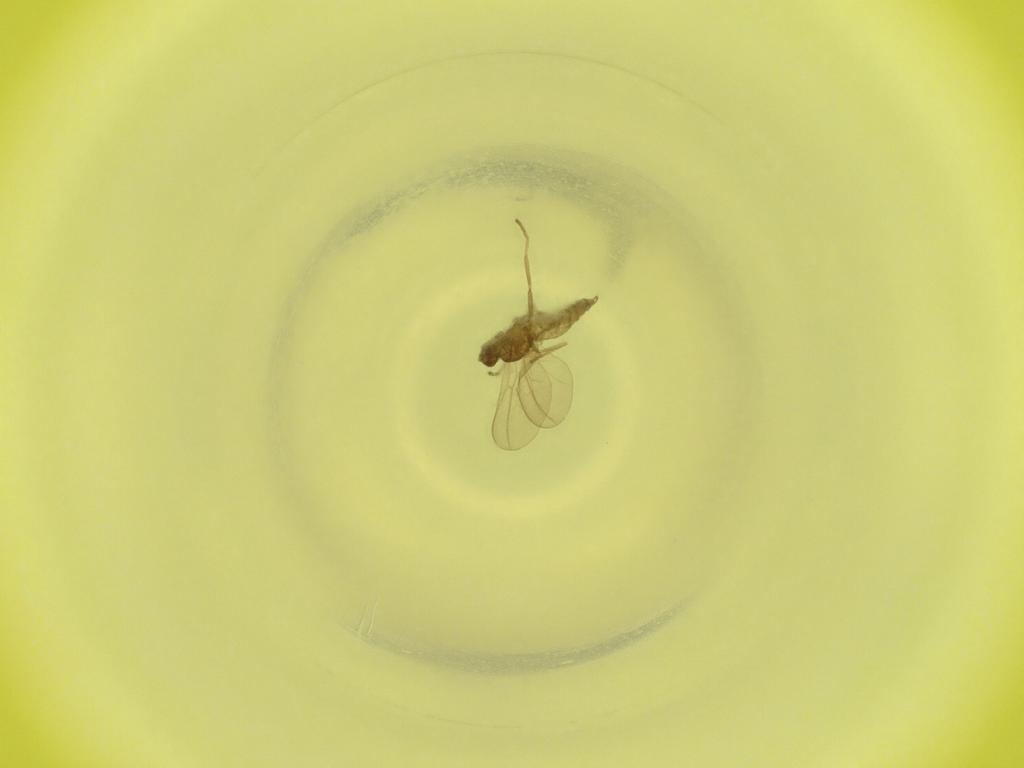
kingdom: Animalia
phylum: Arthropoda
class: Insecta
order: Diptera
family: Cecidomyiidae
